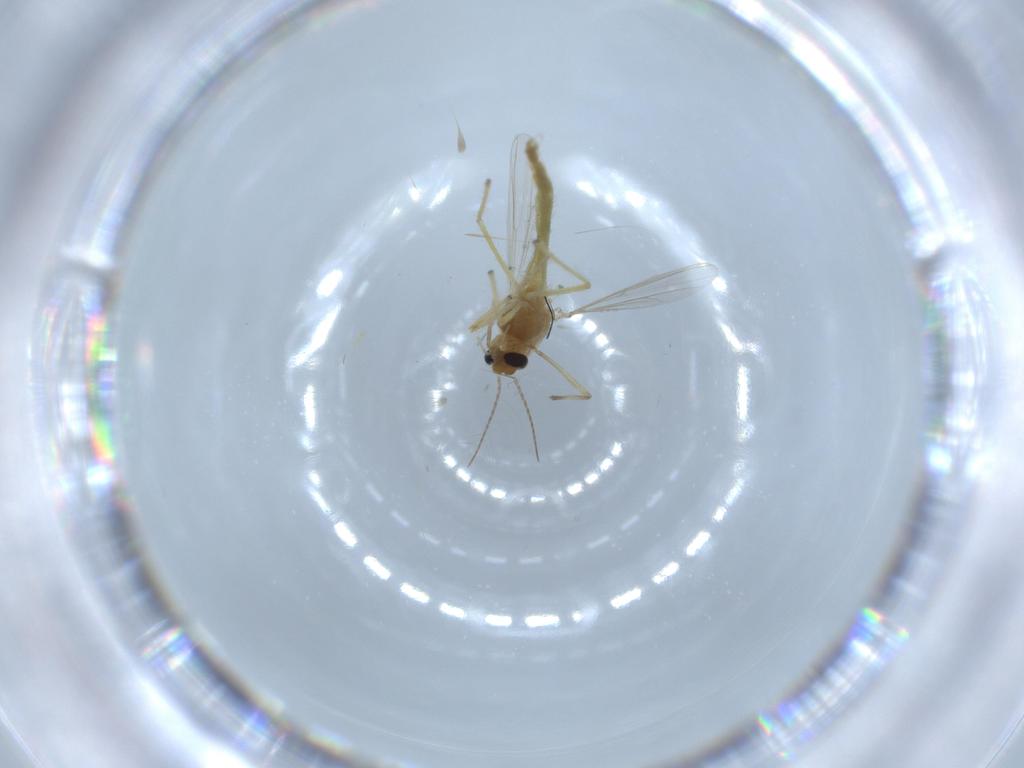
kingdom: Animalia
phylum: Arthropoda
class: Insecta
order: Diptera
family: Chironomidae
